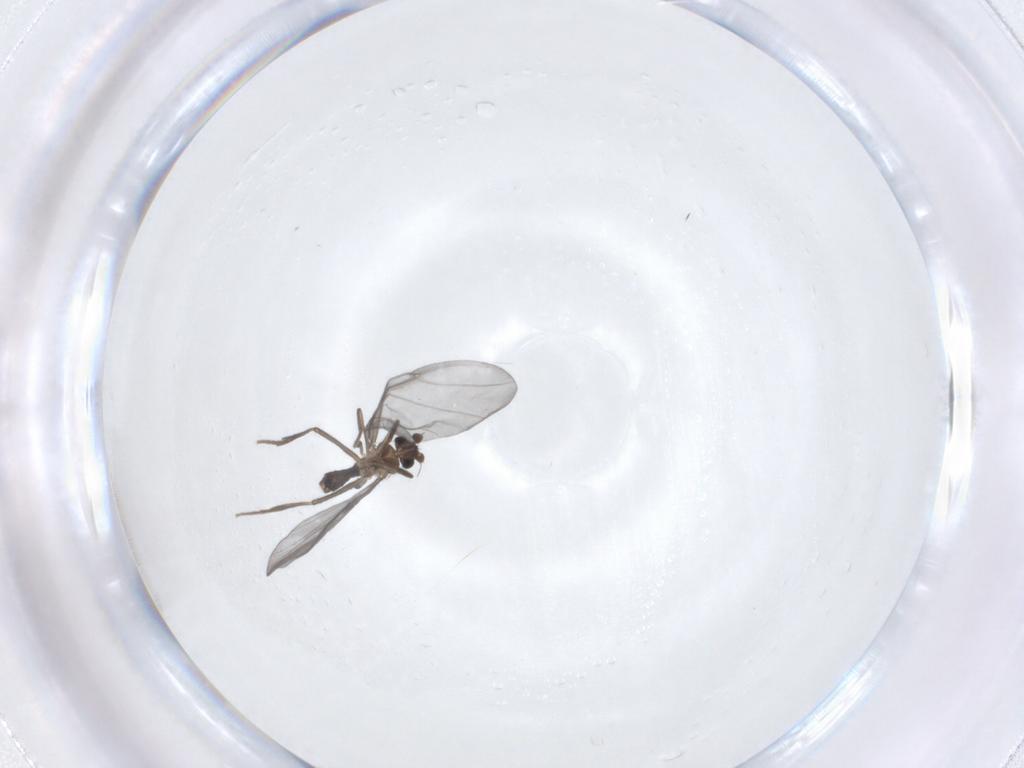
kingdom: Animalia
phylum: Arthropoda
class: Insecta
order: Diptera
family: Phoridae
